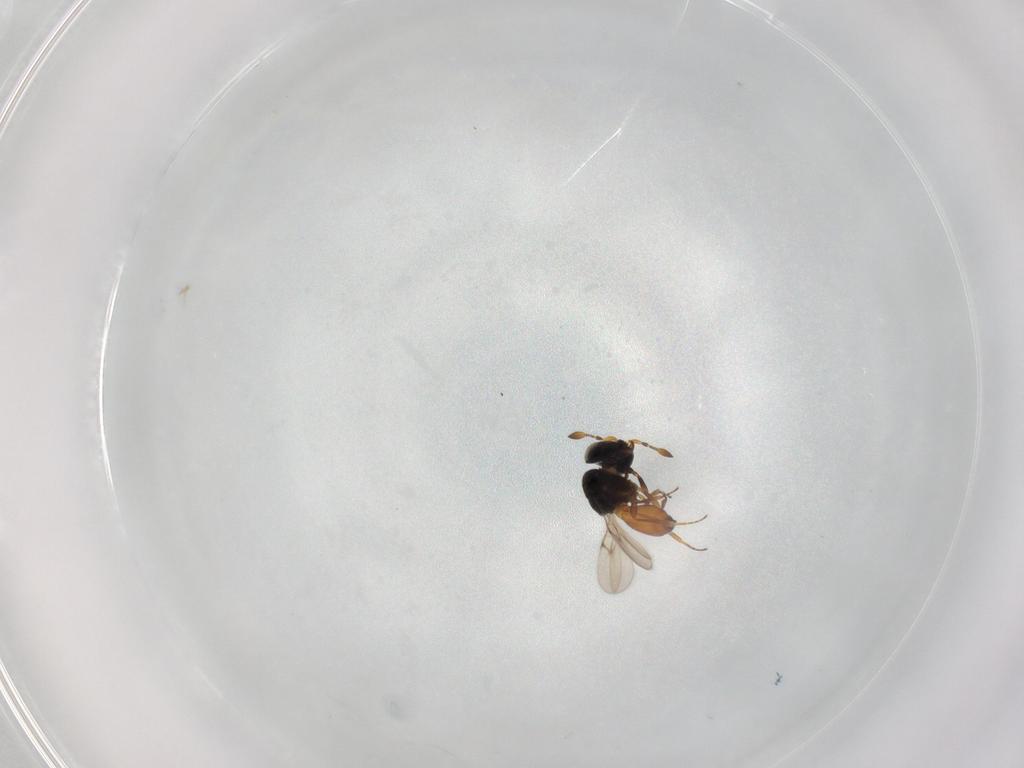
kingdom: Animalia
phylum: Arthropoda
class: Insecta
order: Hymenoptera
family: Scelionidae
